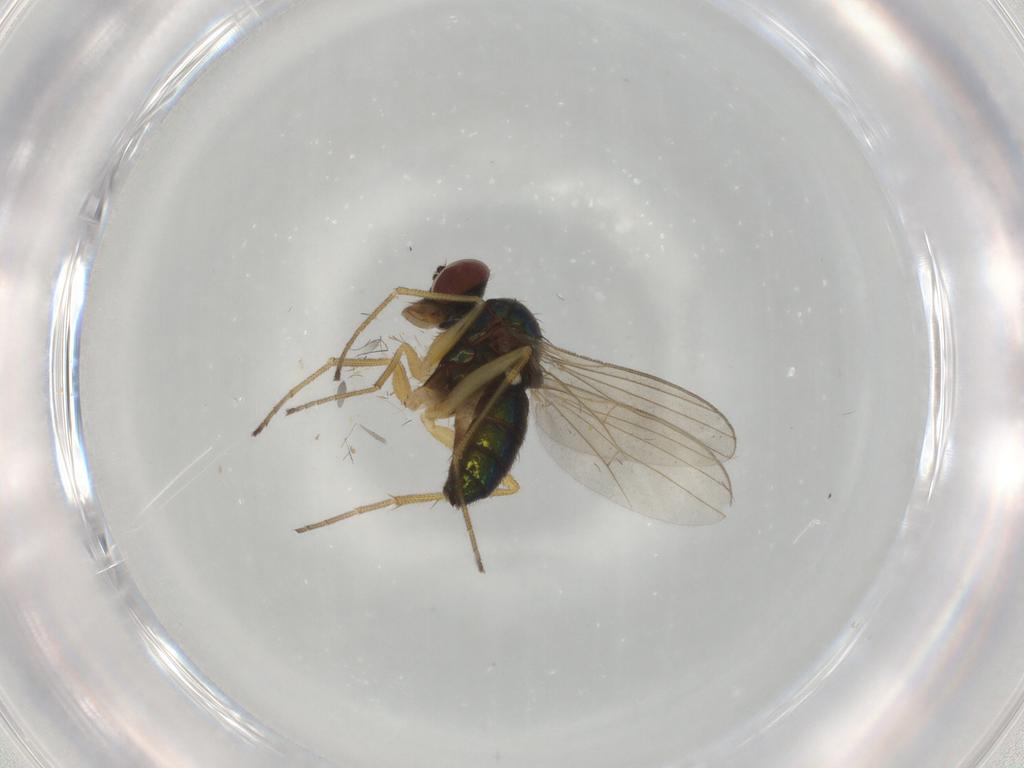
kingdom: Animalia
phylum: Arthropoda
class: Insecta
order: Diptera
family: Dolichopodidae
